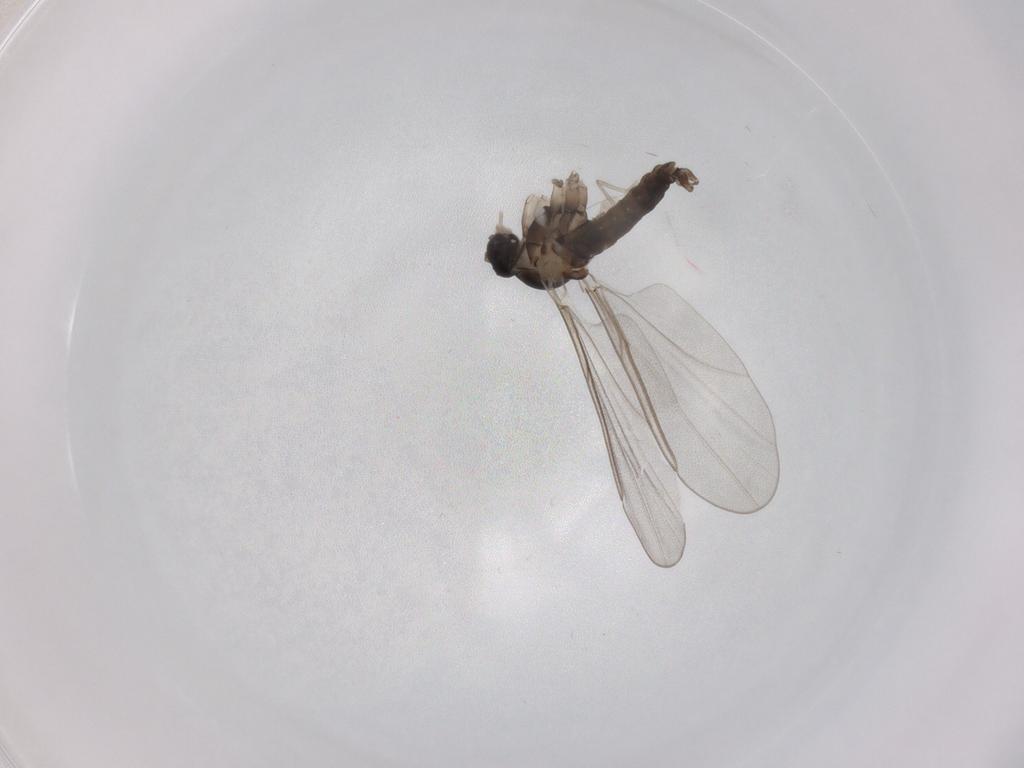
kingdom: Animalia
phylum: Arthropoda
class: Insecta
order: Diptera
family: Cecidomyiidae
